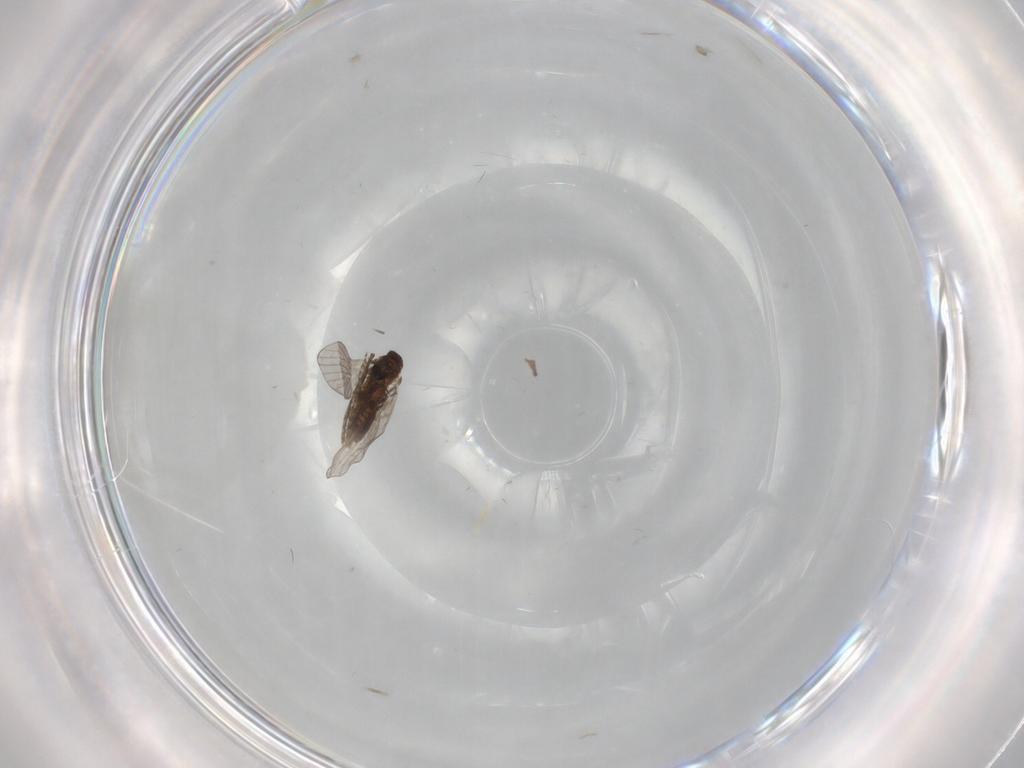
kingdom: Animalia
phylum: Arthropoda
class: Insecta
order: Diptera
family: Psychodidae
